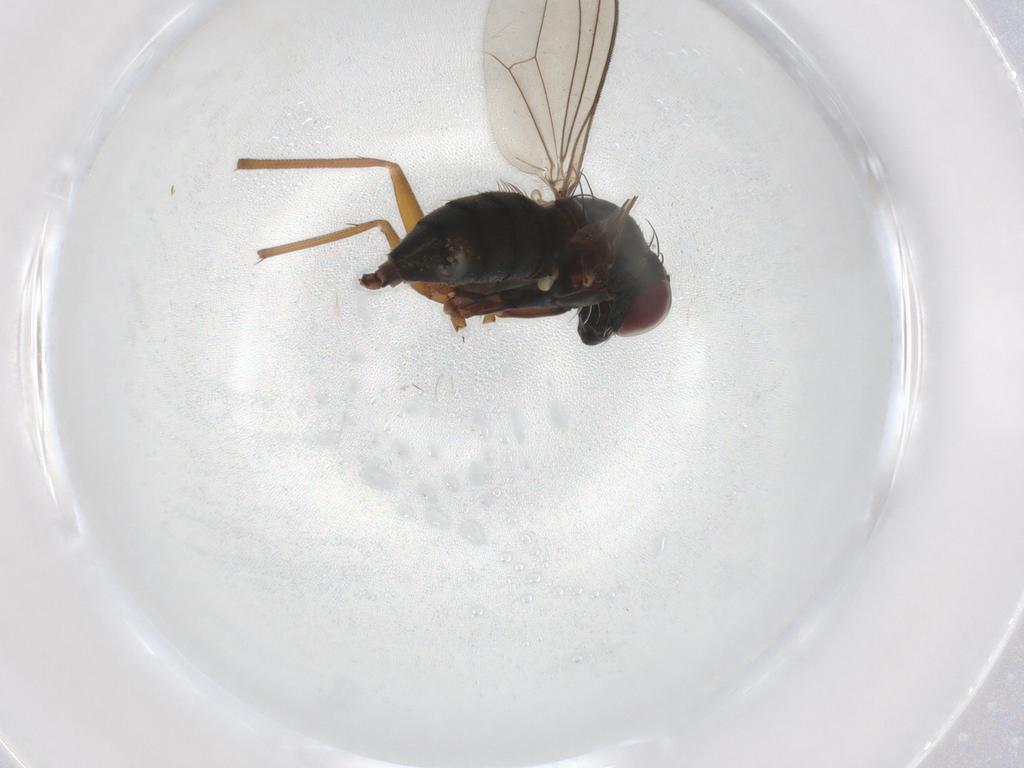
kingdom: Animalia
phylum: Arthropoda
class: Insecta
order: Diptera
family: Dolichopodidae
